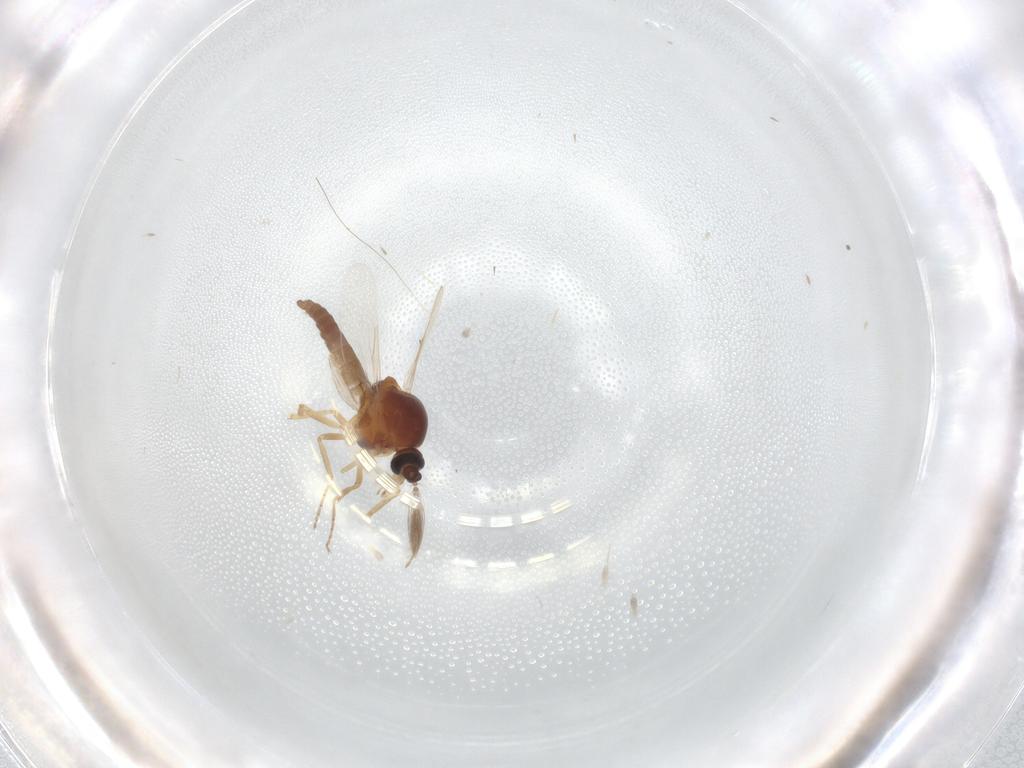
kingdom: Animalia
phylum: Arthropoda
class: Insecta
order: Diptera
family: Ceratopogonidae
